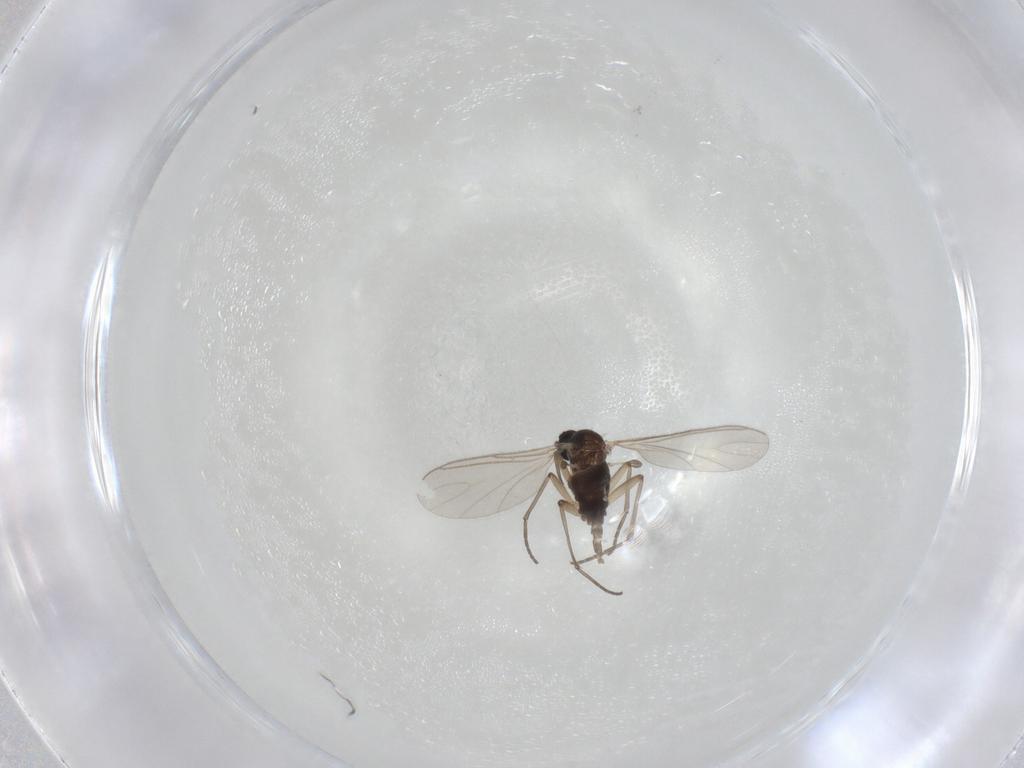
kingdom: Animalia
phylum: Arthropoda
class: Insecta
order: Diptera
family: Sciaridae
